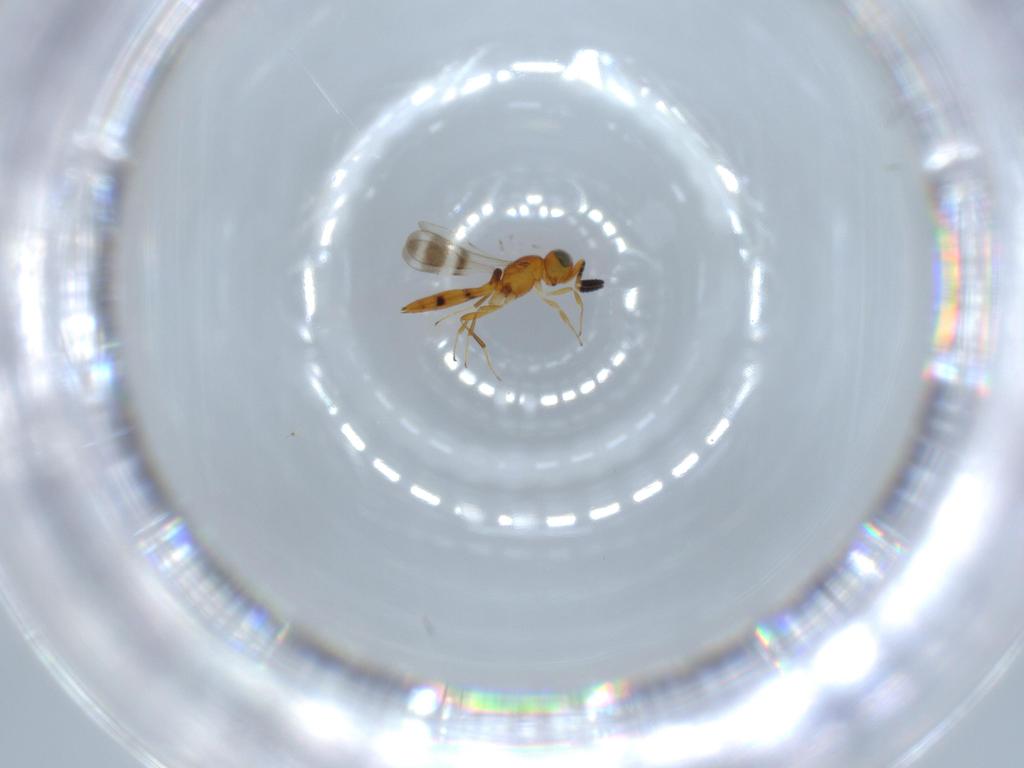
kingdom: Animalia
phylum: Arthropoda
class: Insecta
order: Hymenoptera
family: Scelionidae
